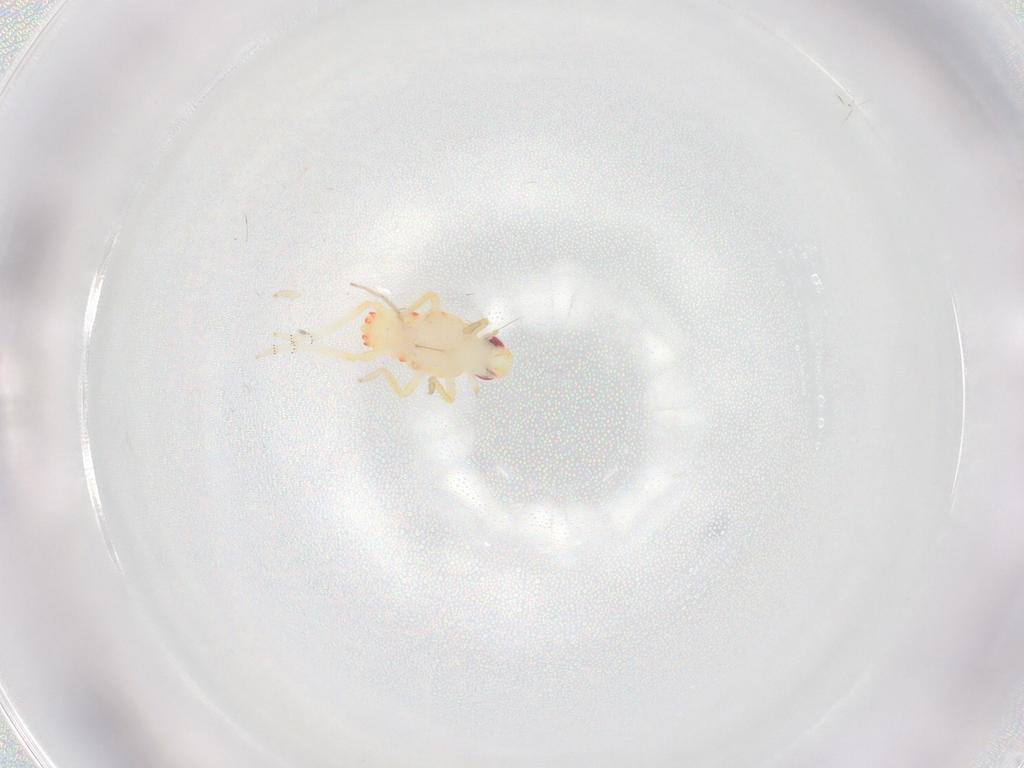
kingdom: Animalia
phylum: Arthropoda
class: Insecta
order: Hemiptera
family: Tropiduchidae
